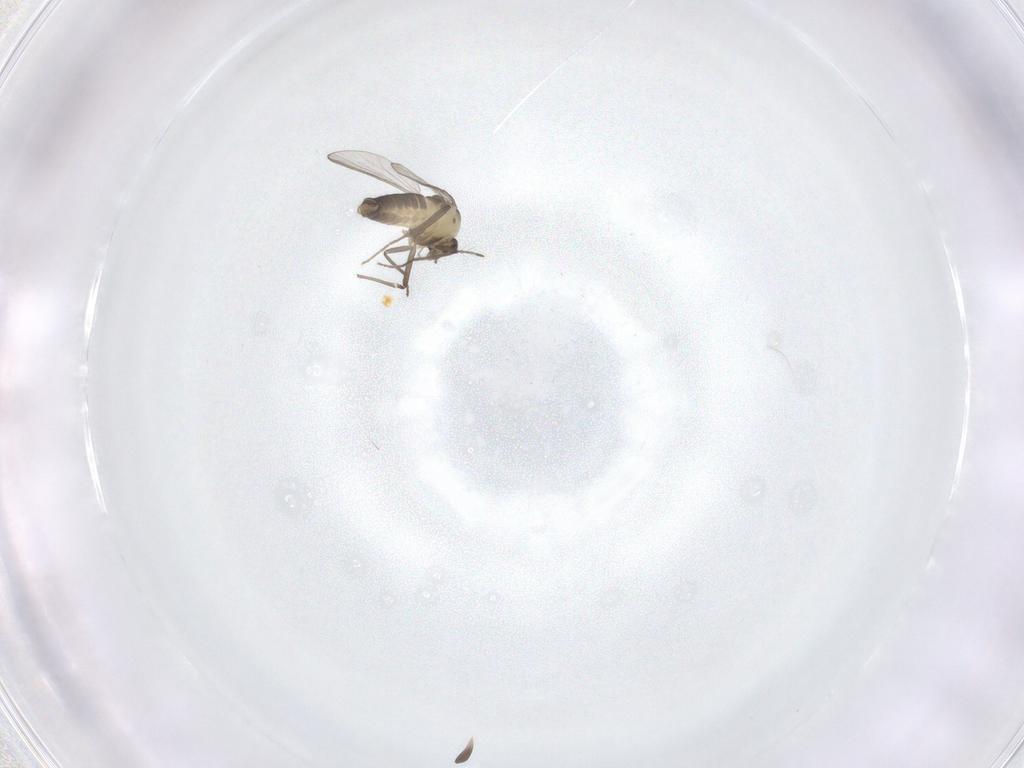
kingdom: Animalia
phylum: Arthropoda
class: Insecta
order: Diptera
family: Chironomidae
